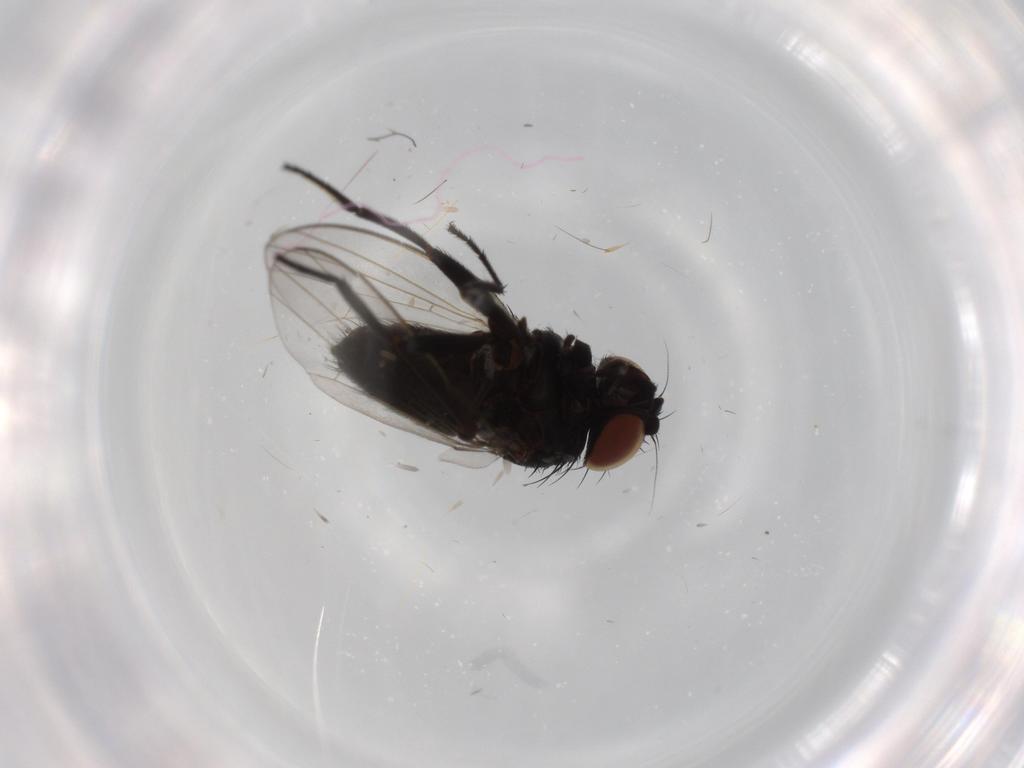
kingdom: Animalia
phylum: Arthropoda
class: Insecta
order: Diptera
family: Milichiidae
